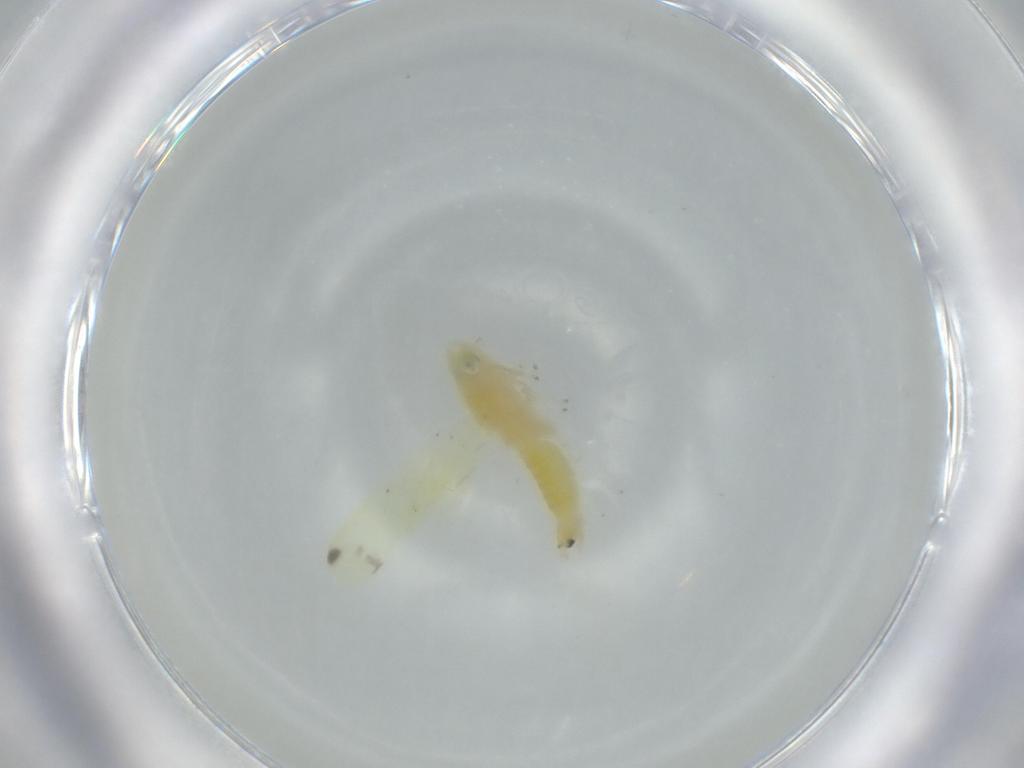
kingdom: Animalia
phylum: Arthropoda
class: Insecta
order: Hemiptera
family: Cicadellidae
